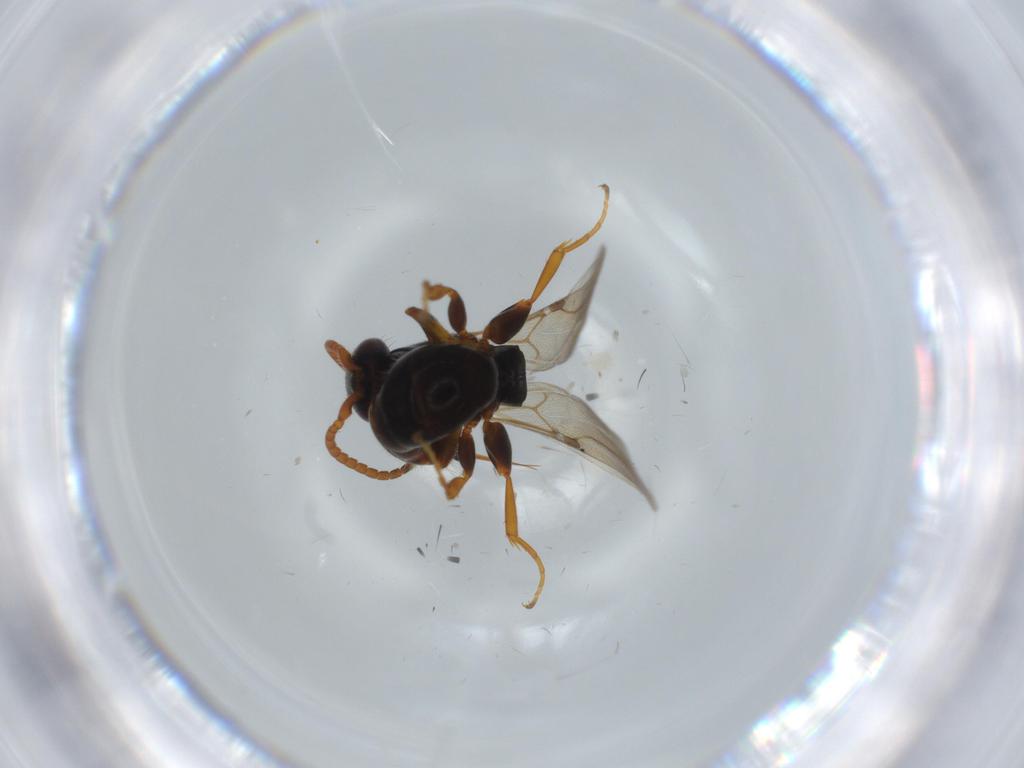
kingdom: Animalia
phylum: Arthropoda
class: Insecta
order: Hymenoptera
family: Bethylidae
